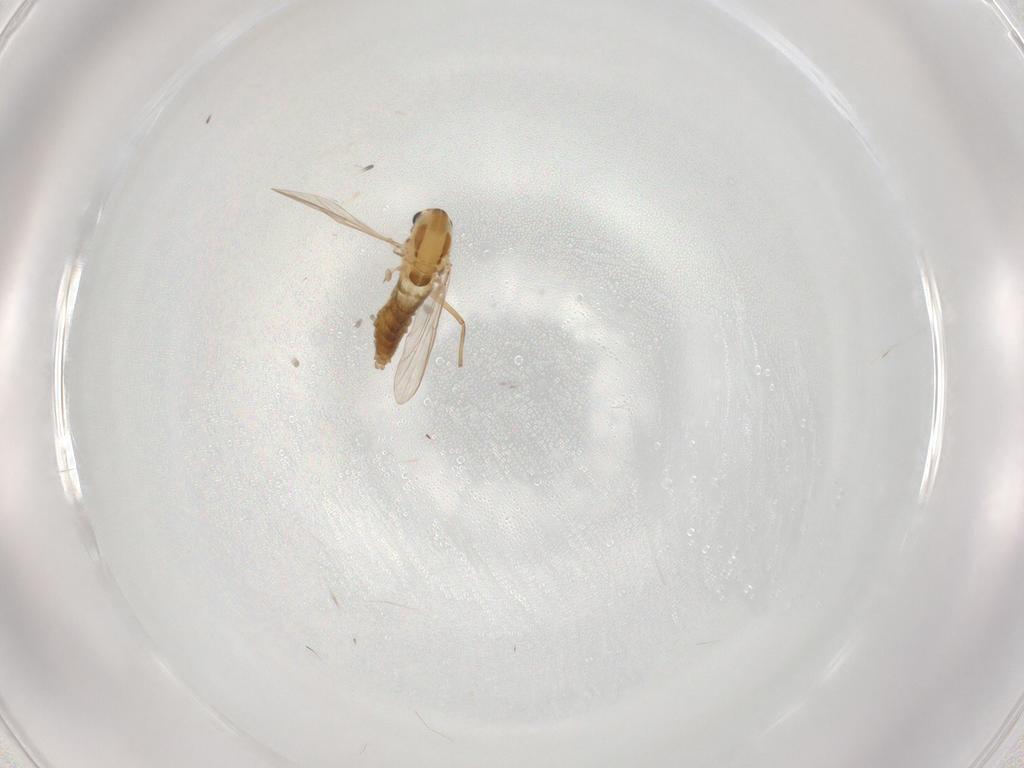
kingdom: Animalia
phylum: Arthropoda
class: Insecta
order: Diptera
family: Chironomidae
